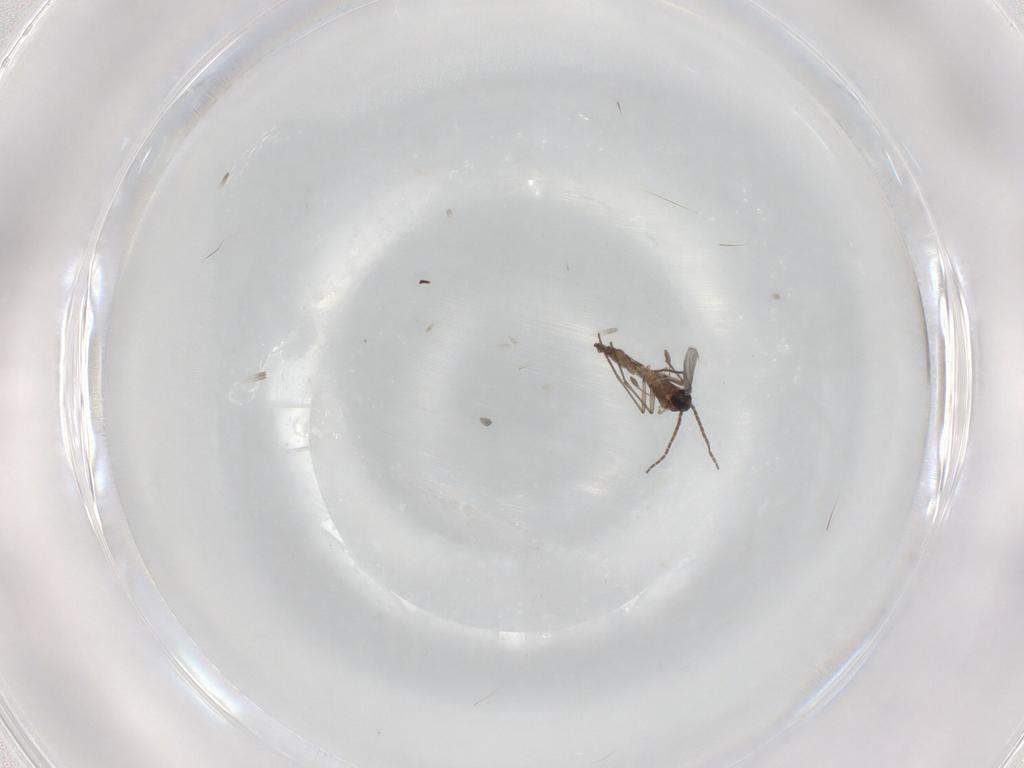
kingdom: Animalia
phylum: Arthropoda
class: Insecta
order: Diptera
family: Sciaridae
